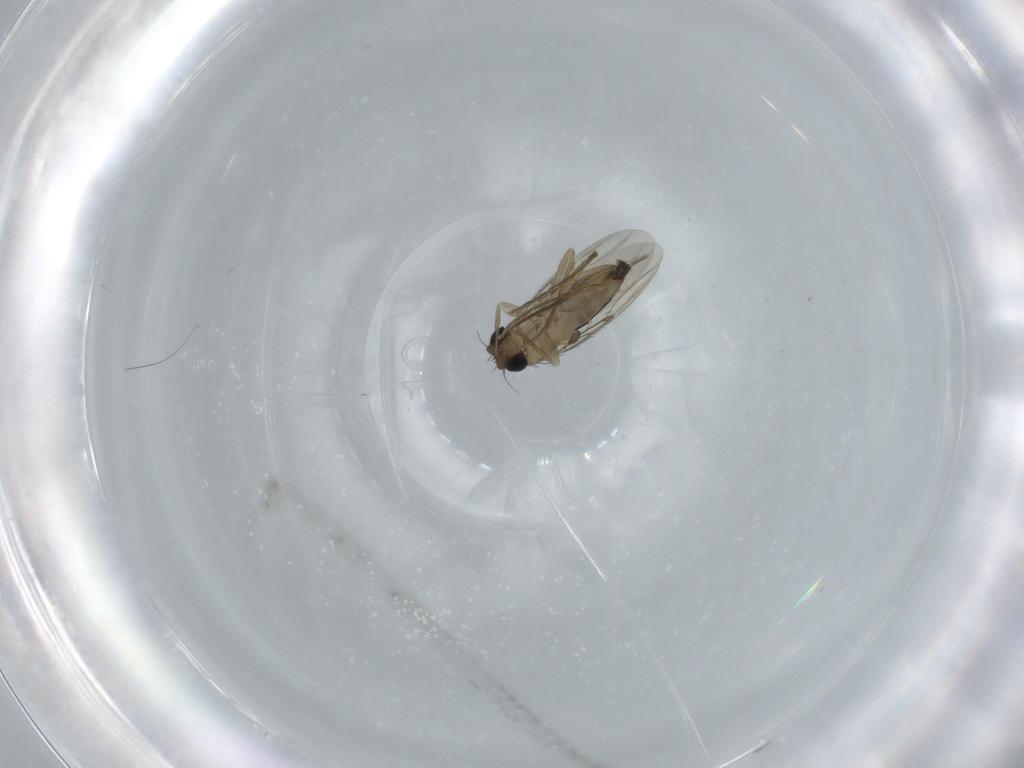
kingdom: Animalia
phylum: Arthropoda
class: Insecta
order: Diptera
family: Phoridae
